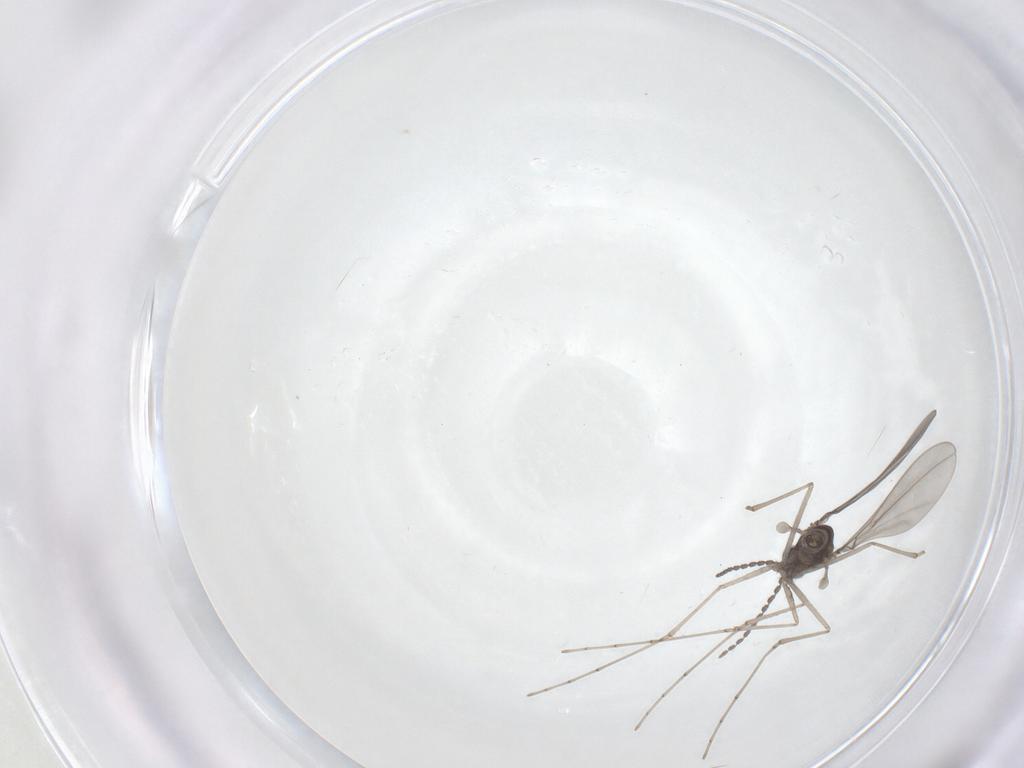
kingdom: Animalia
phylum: Arthropoda
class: Insecta
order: Diptera
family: Cecidomyiidae
